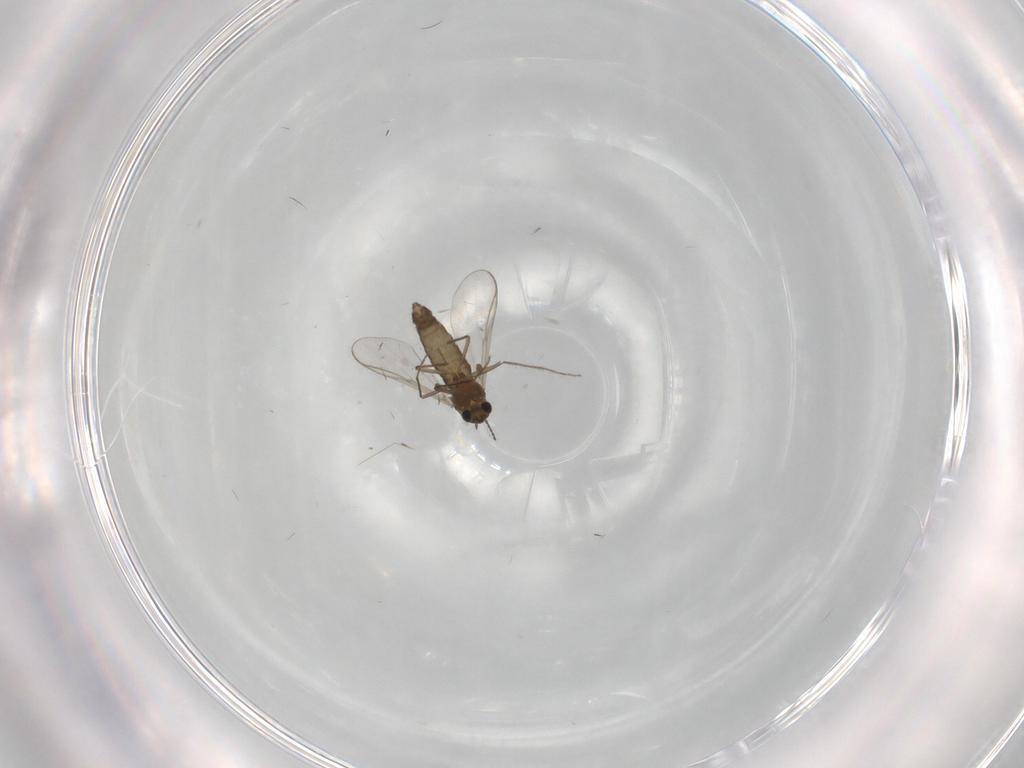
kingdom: Animalia
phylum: Arthropoda
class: Insecta
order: Diptera
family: Chironomidae
